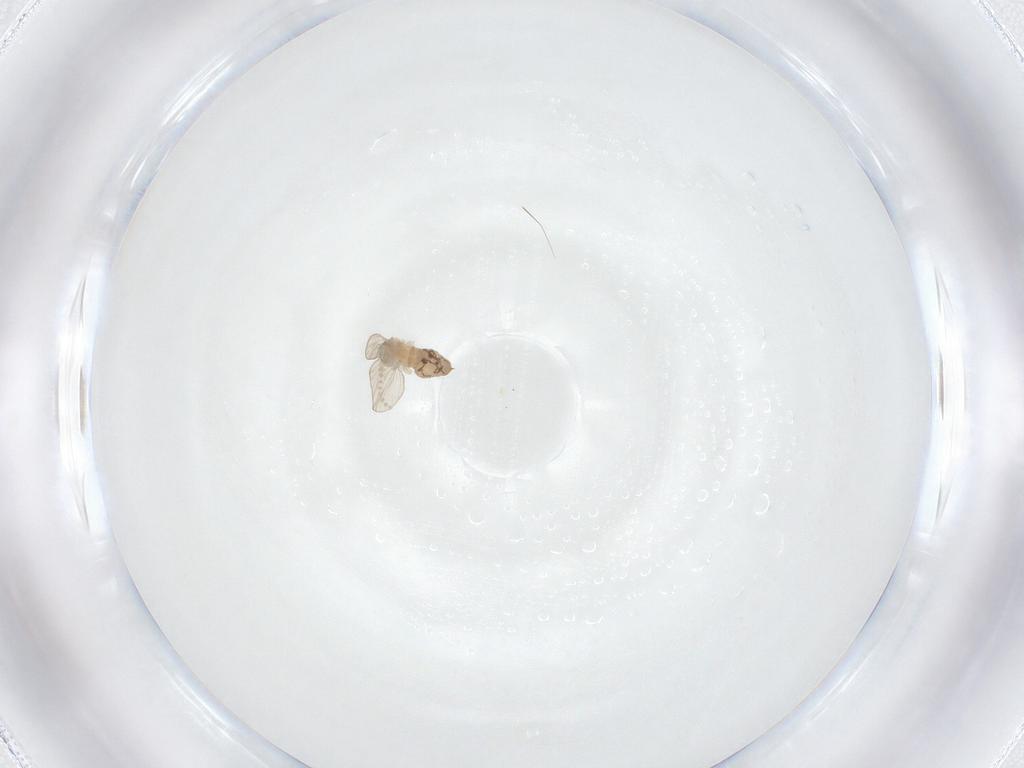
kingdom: Animalia
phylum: Arthropoda
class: Insecta
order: Diptera
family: Psychodidae
